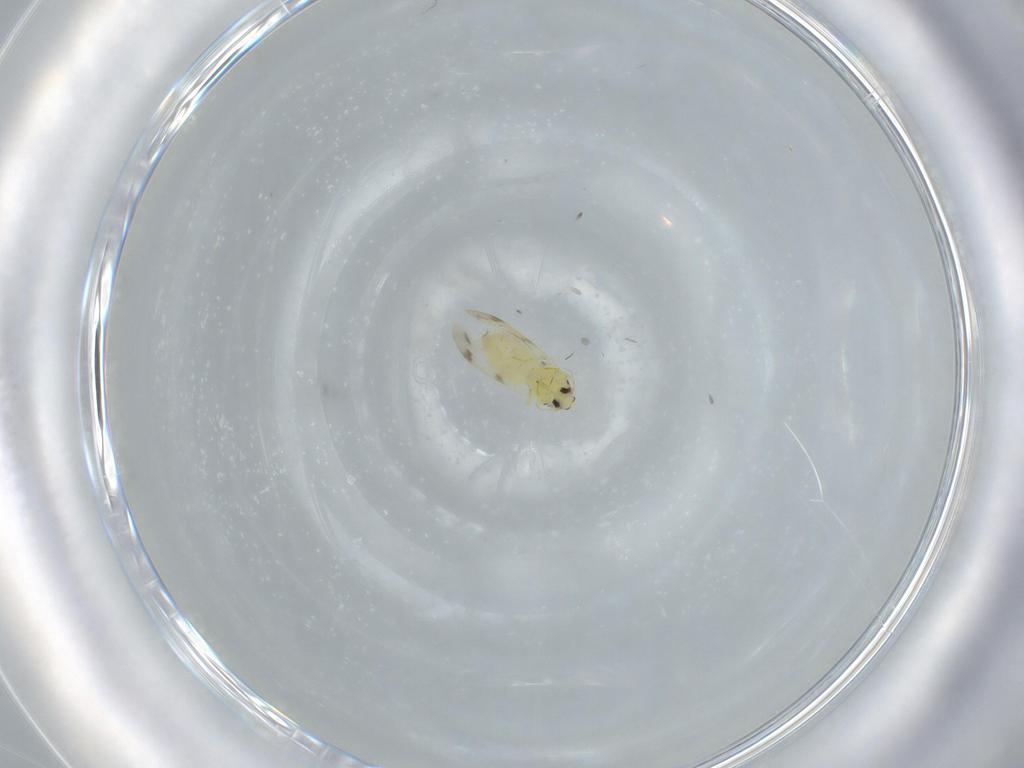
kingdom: Animalia
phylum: Arthropoda
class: Insecta
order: Hemiptera
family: Aleyrodidae
